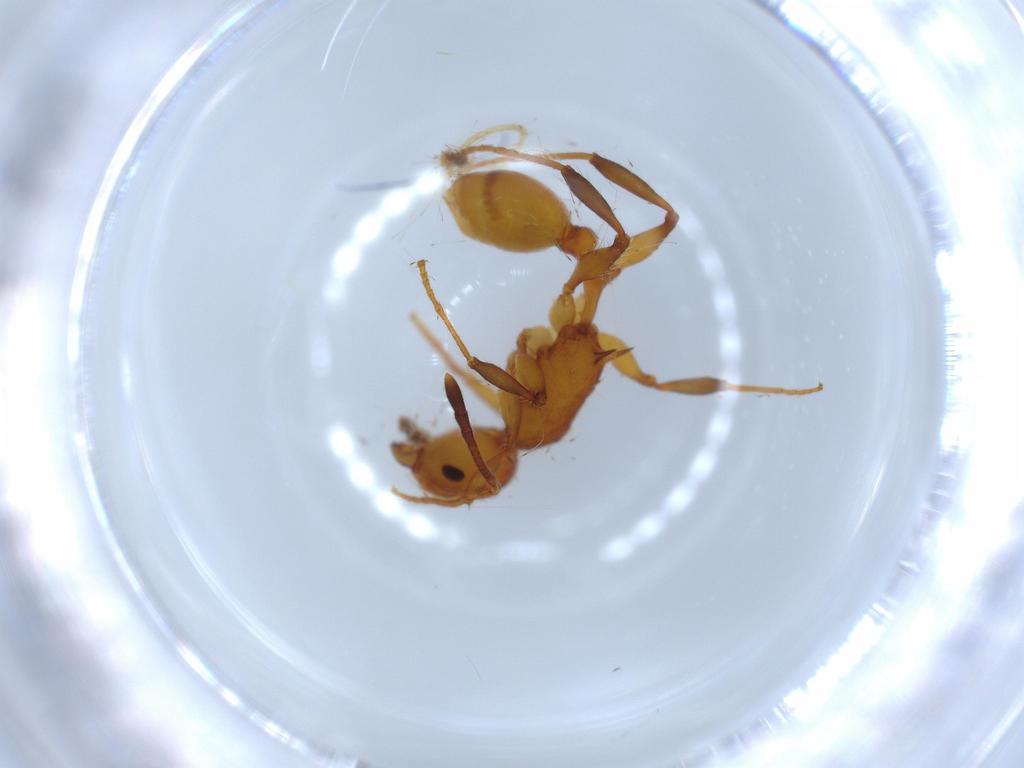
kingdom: Animalia
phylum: Arthropoda
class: Insecta
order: Hymenoptera
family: Formicidae
